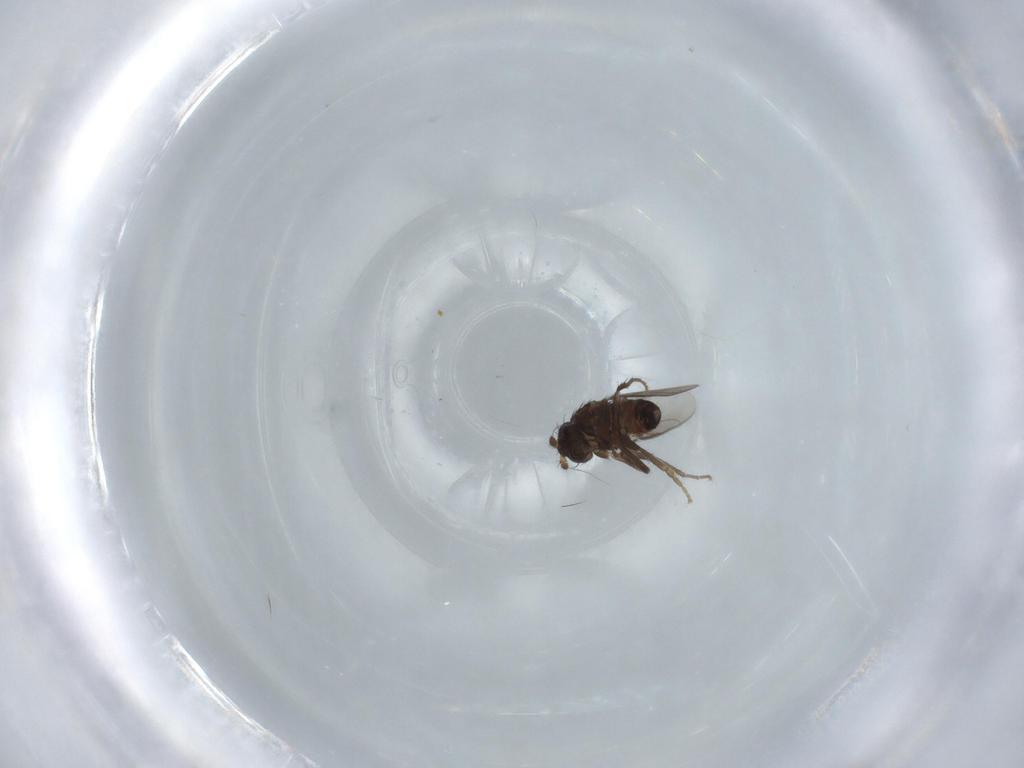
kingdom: Animalia
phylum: Arthropoda
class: Insecta
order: Diptera
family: Sphaeroceridae
